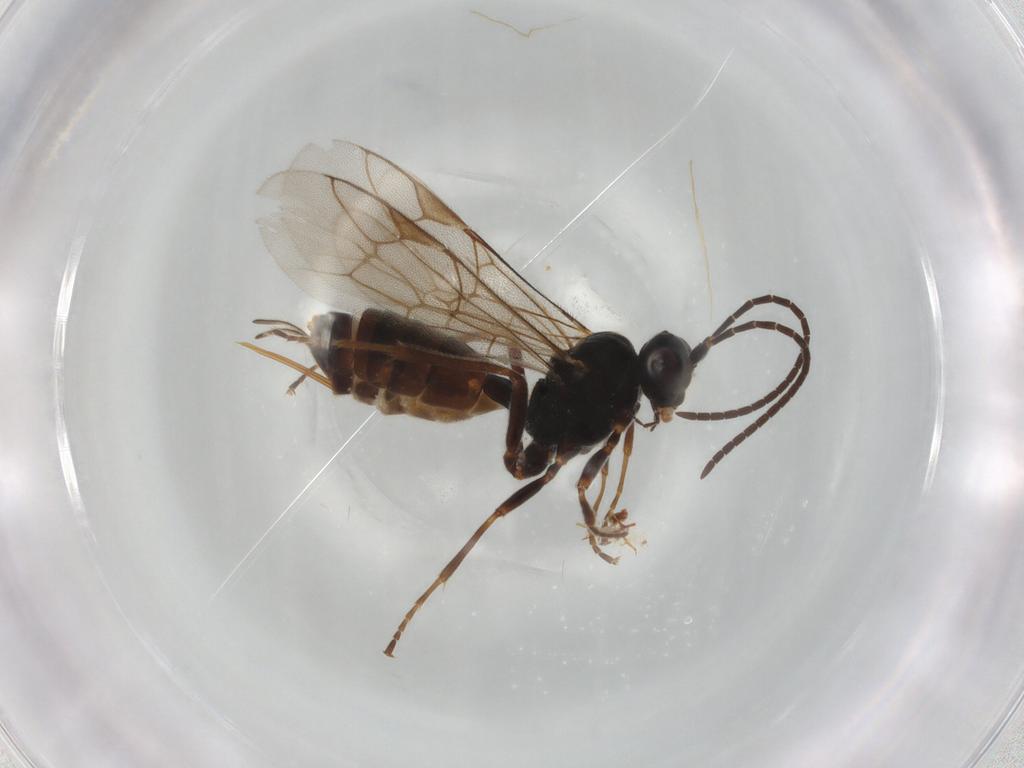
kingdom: Animalia
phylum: Arthropoda
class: Insecta
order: Hymenoptera
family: Ichneumonidae
